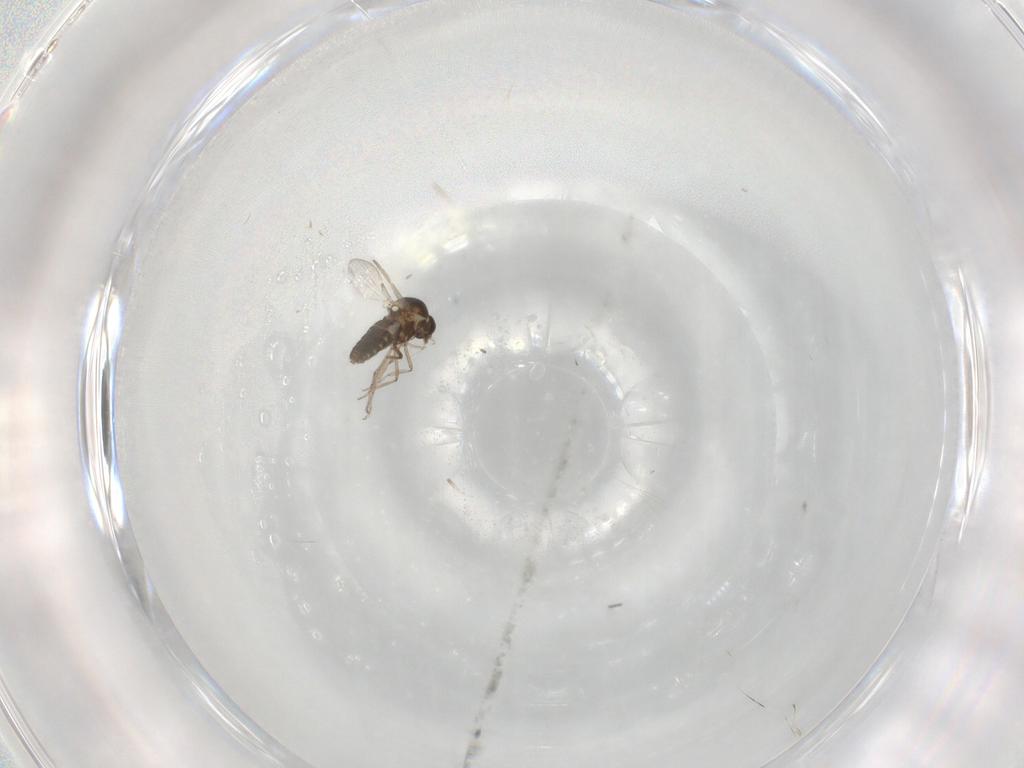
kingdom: Animalia
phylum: Arthropoda
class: Insecta
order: Diptera
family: Ceratopogonidae
